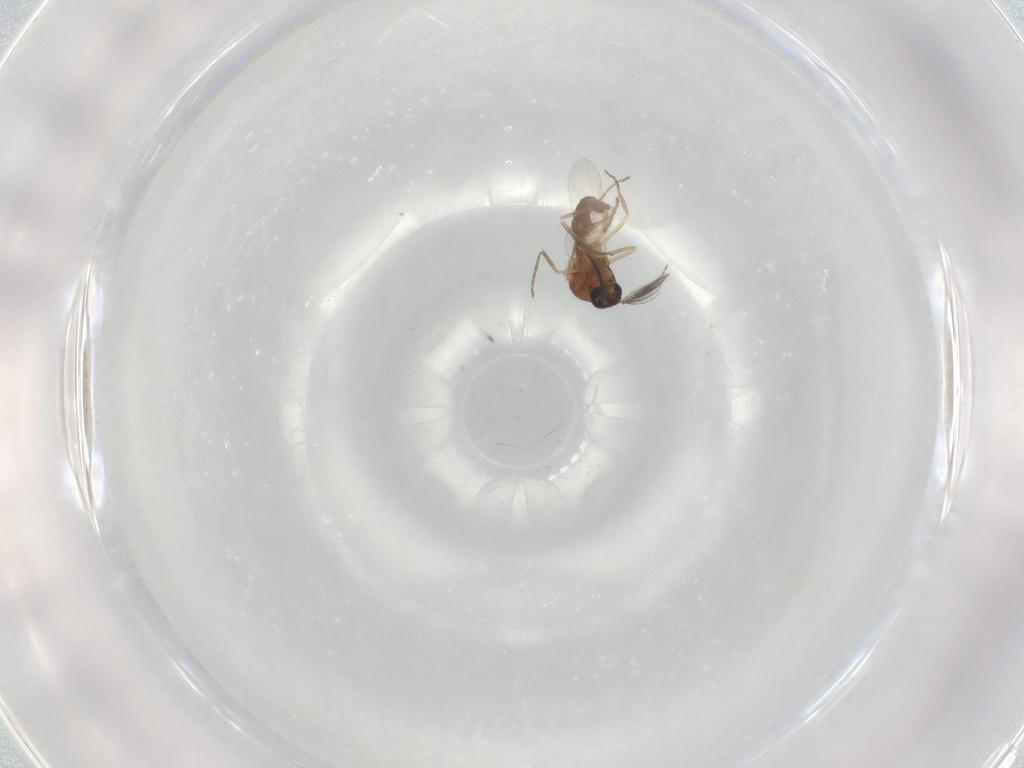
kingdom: Animalia
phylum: Arthropoda
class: Insecta
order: Diptera
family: Ceratopogonidae
